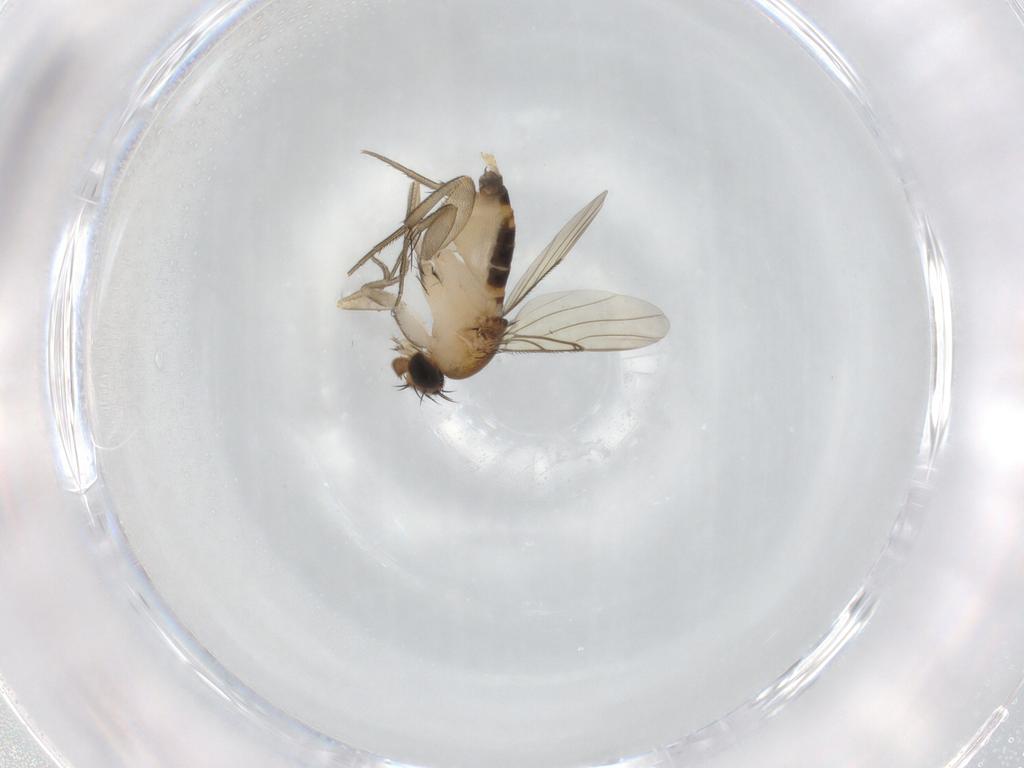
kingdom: Animalia
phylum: Arthropoda
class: Insecta
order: Diptera
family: Phoridae
